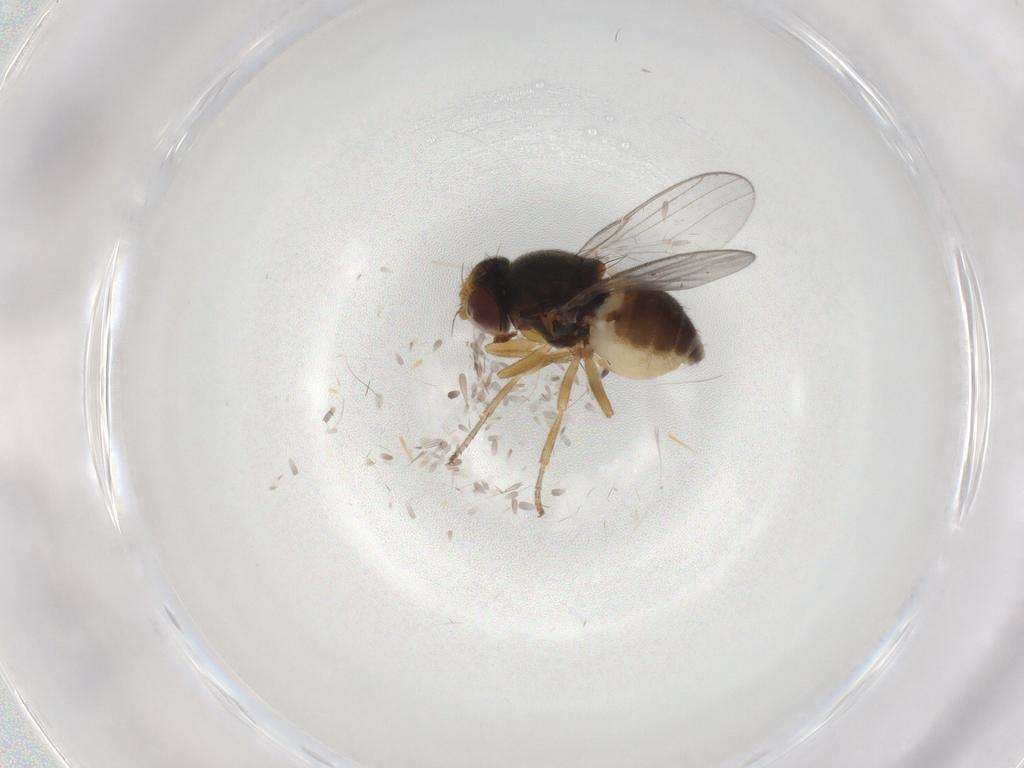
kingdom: Animalia
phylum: Arthropoda
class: Insecta
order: Diptera
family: Chloropidae
